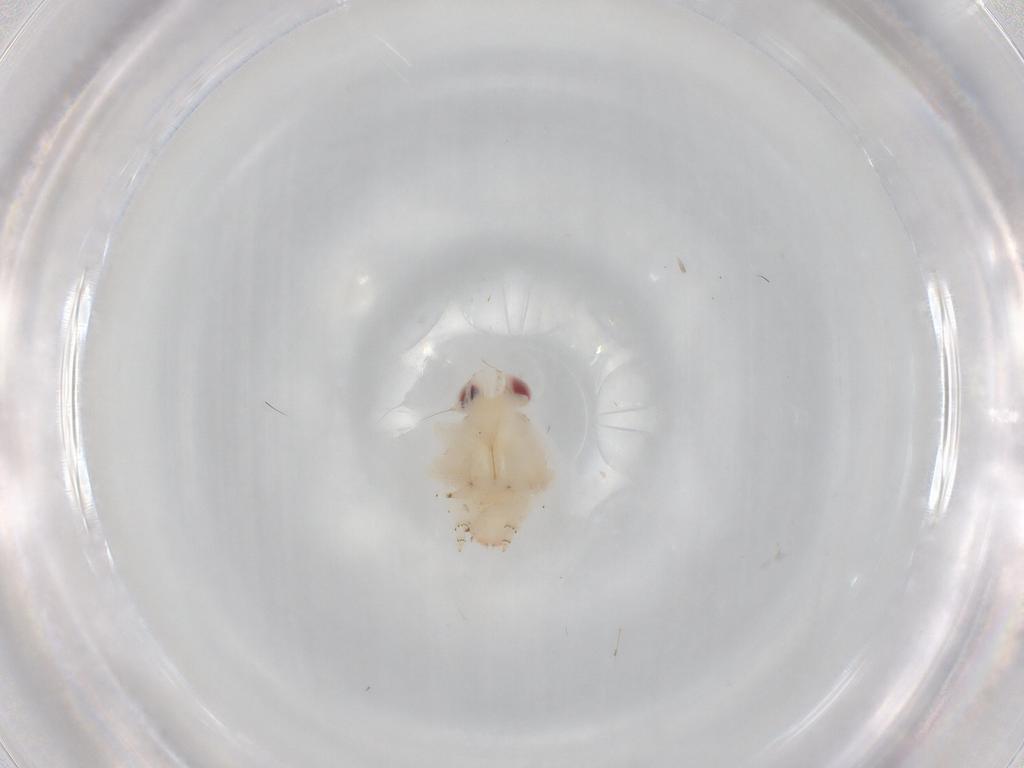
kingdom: Animalia
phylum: Arthropoda
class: Insecta
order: Hemiptera
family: Nogodinidae
